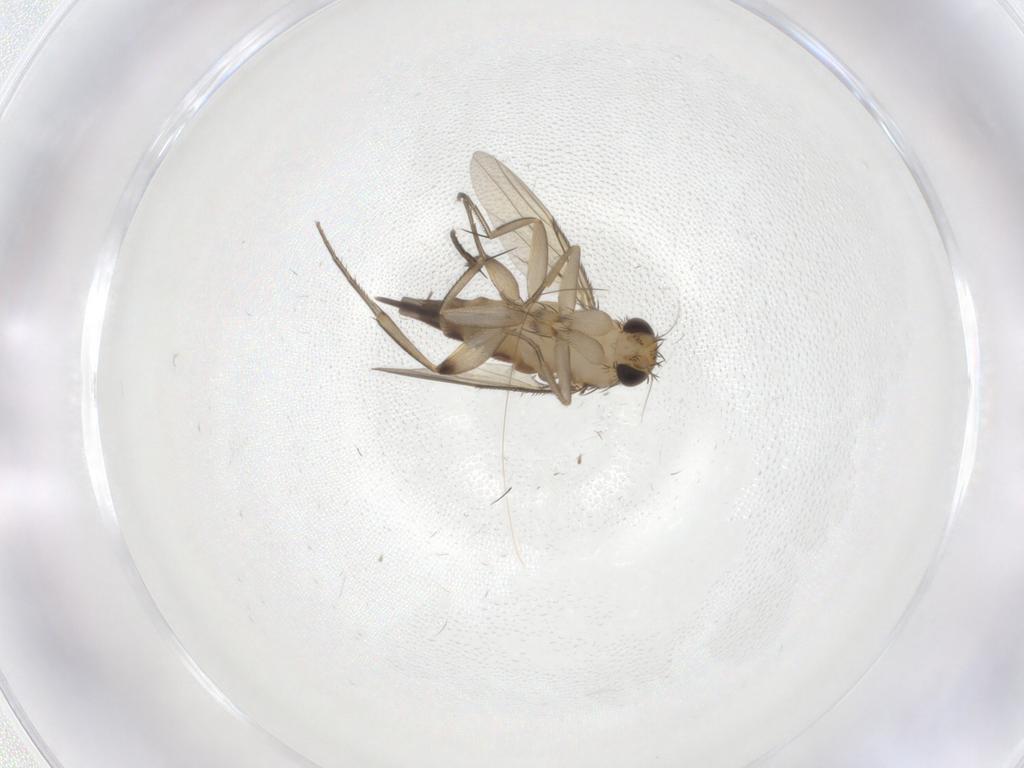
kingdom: Animalia
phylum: Arthropoda
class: Insecta
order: Diptera
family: Phoridae
